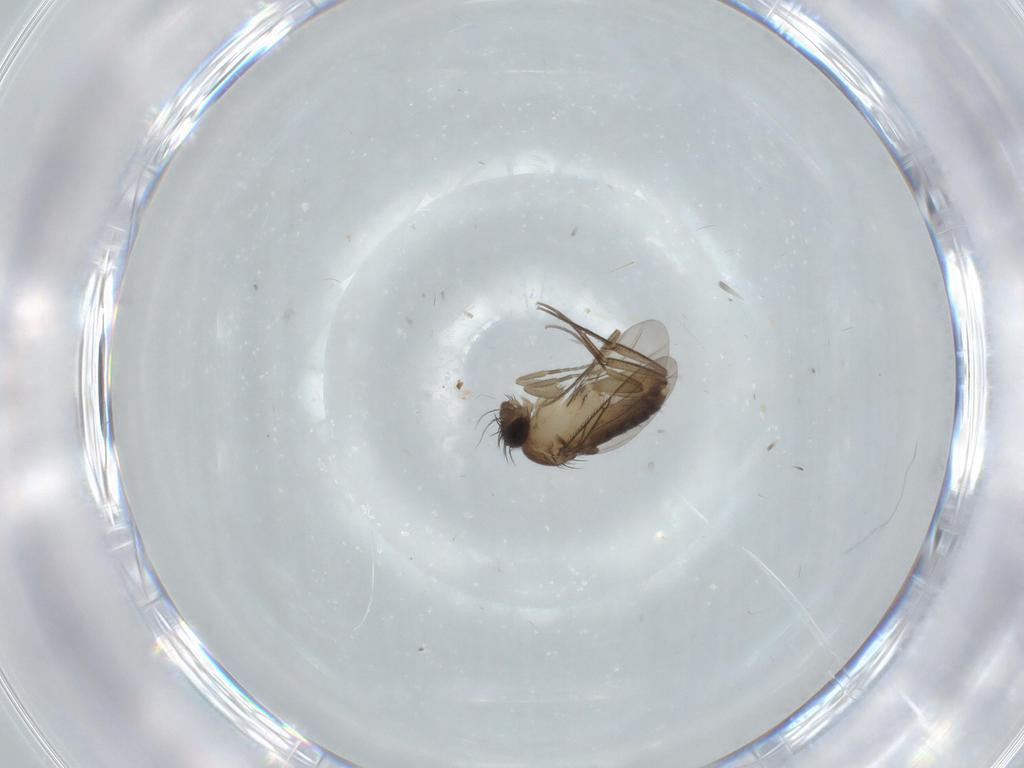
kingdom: Animalia
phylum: Arthropoda
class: Insecta
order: Diptera
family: Phoridae
